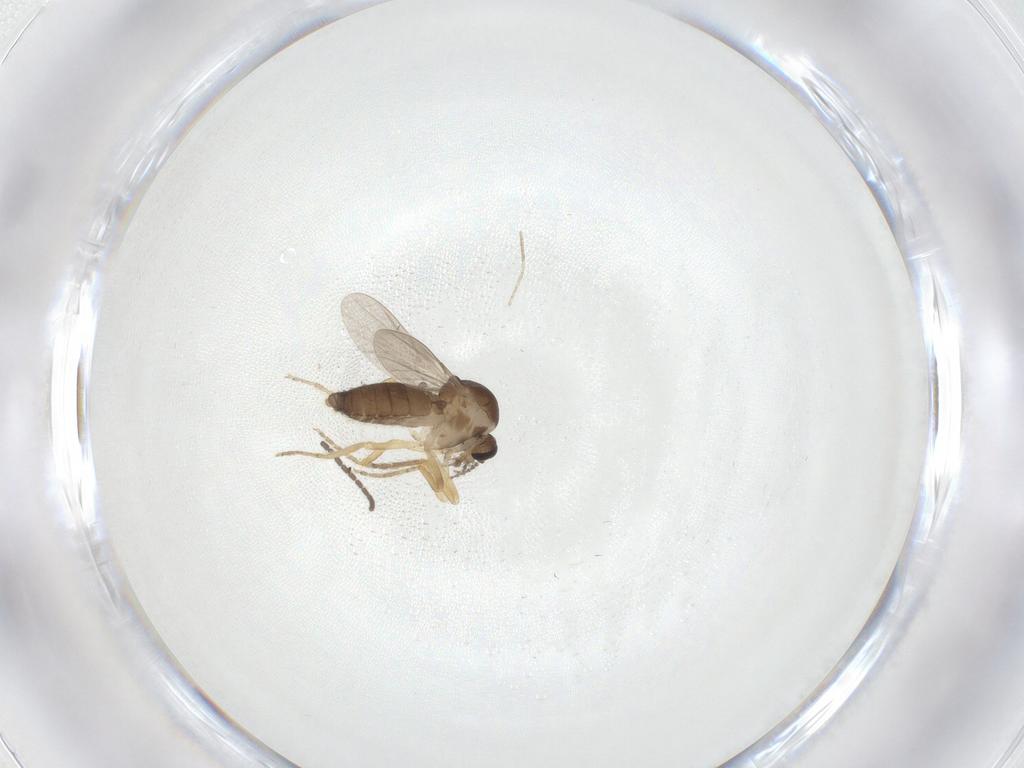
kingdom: Animalia
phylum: Arthropoda
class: Insecta
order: Diptera
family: Ceratopogonidae
